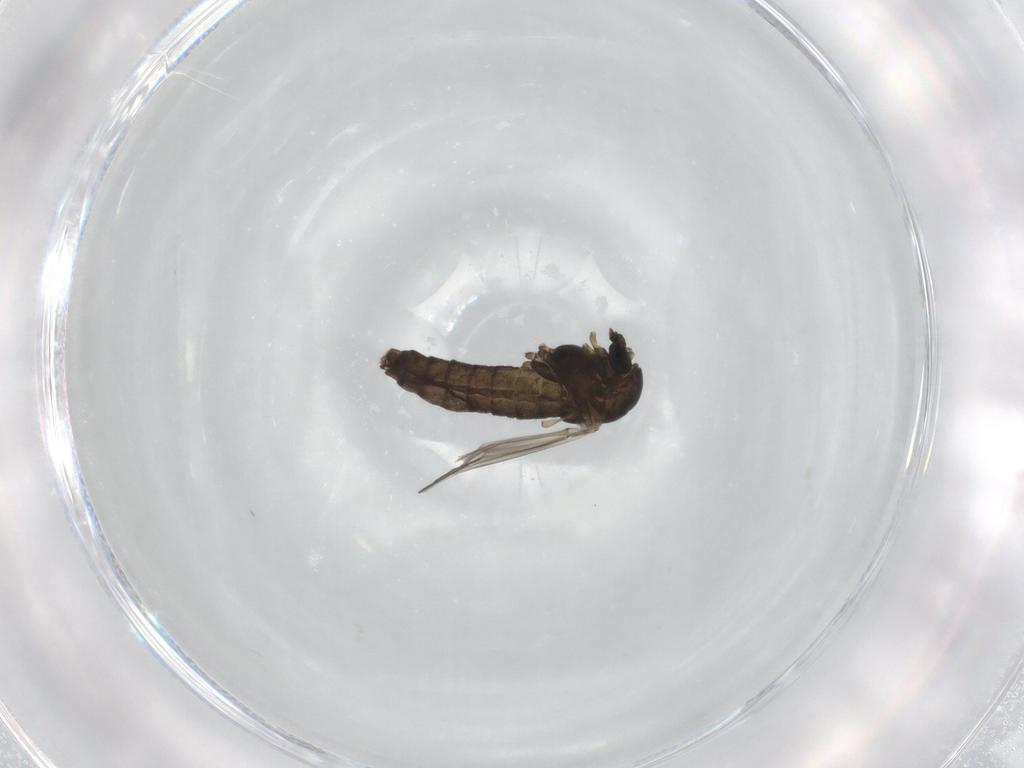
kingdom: Animalia
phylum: Arthropoda
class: Insecta
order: Diptera
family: Chironomidae
